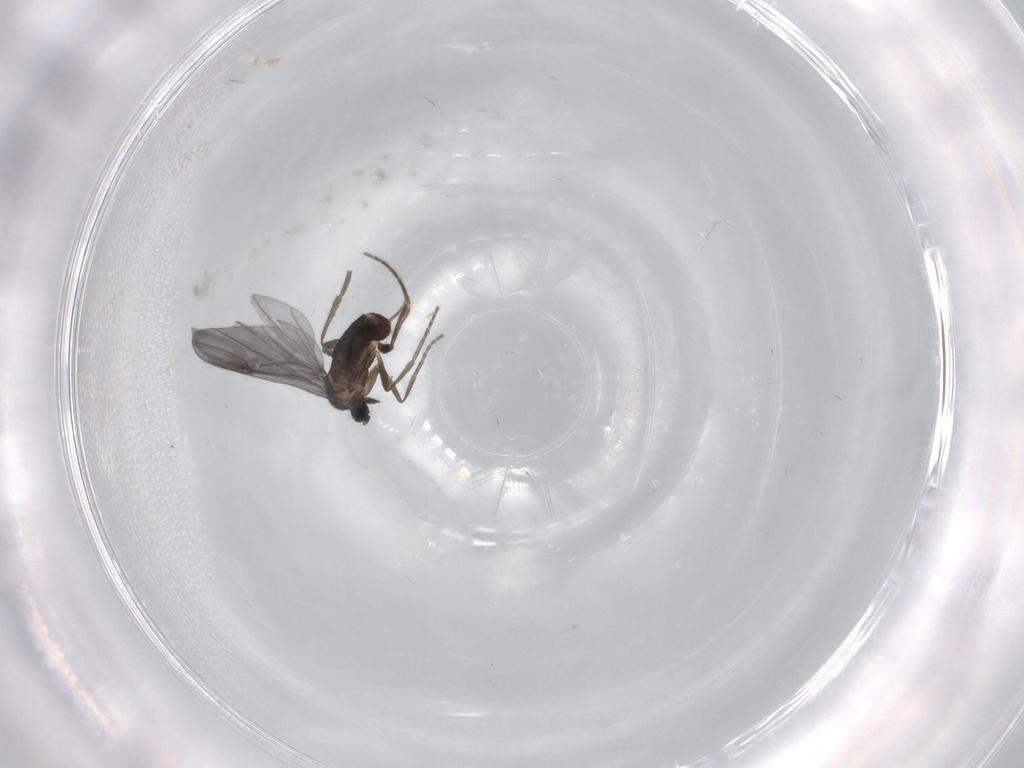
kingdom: Animalia
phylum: Arthropoda
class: Insecta
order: Diptera
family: Phoridae
